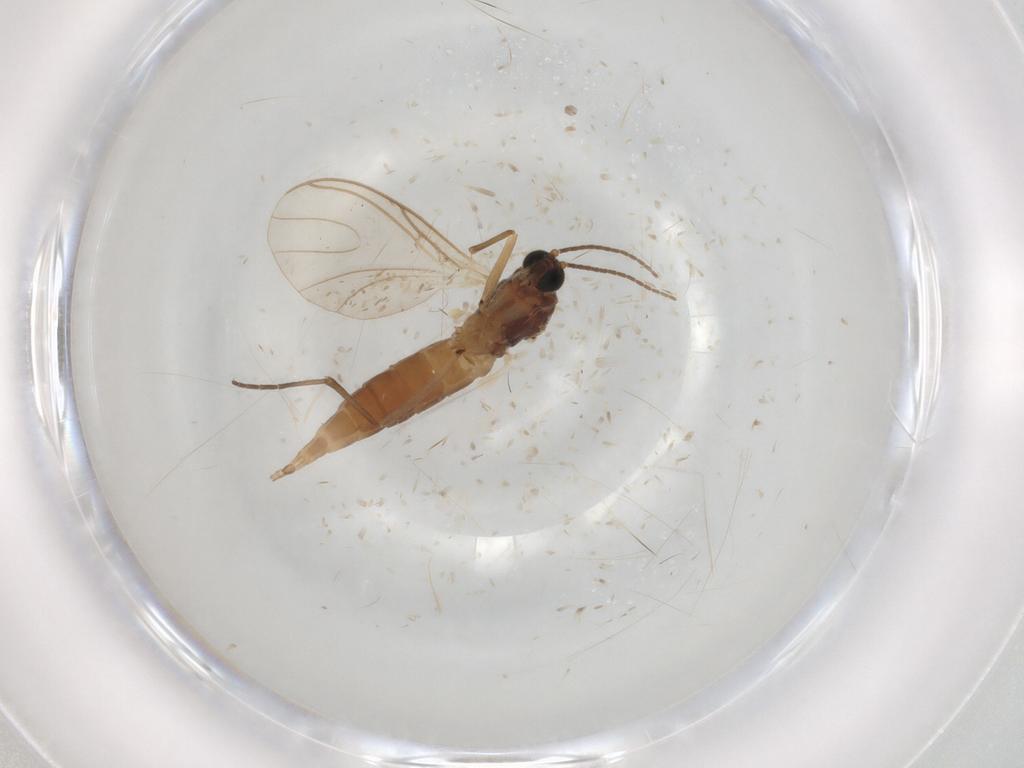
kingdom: Animalia
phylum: Arthropoda
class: Insecta
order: Diptera
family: Sciaridae
